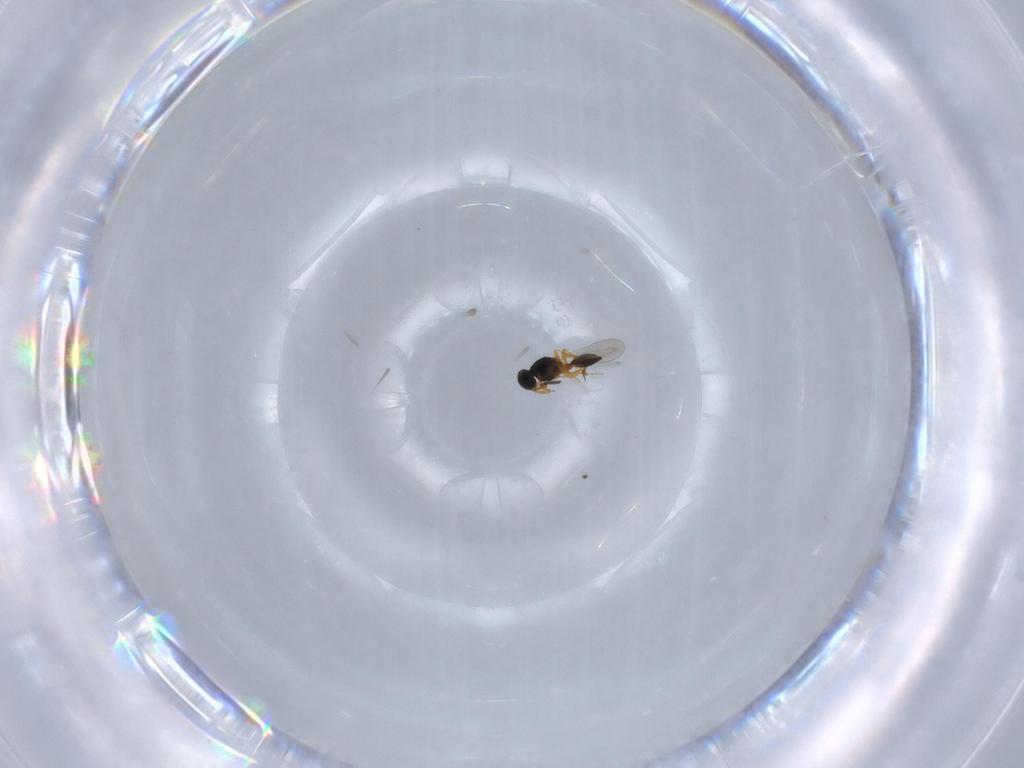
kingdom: Animalia
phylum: Arthropoda
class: Insecta
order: Hymenoptera
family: Platygastridae
